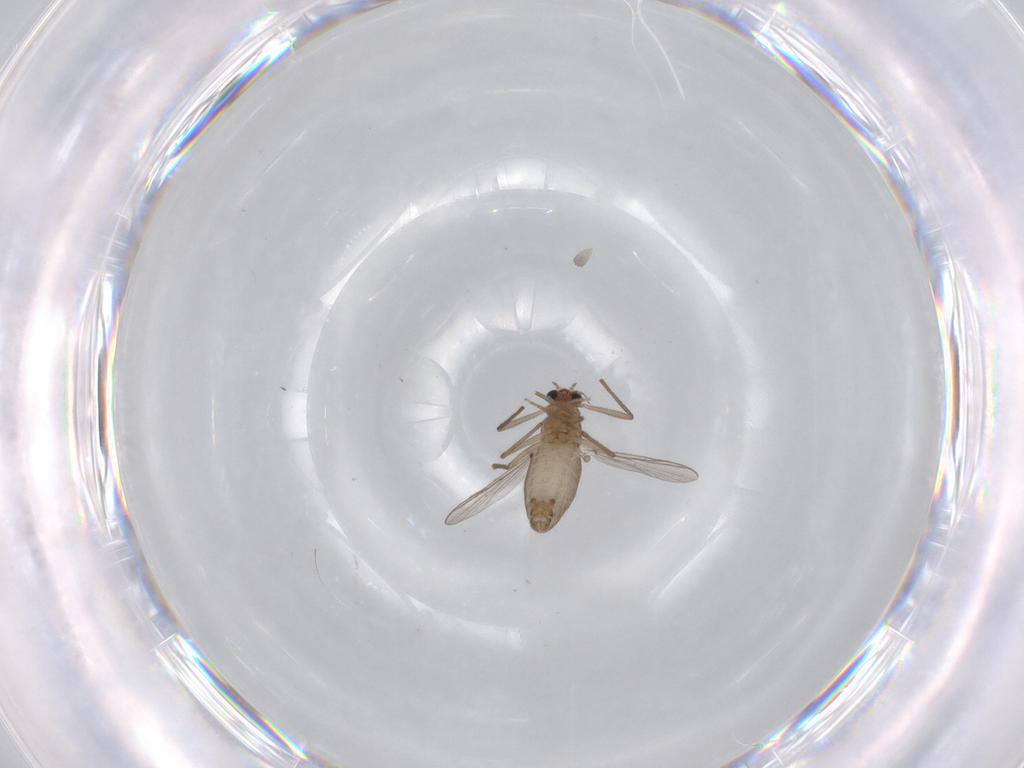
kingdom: Animalia
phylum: Arthropoda
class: Insecta
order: Diptera
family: Chironomidae
